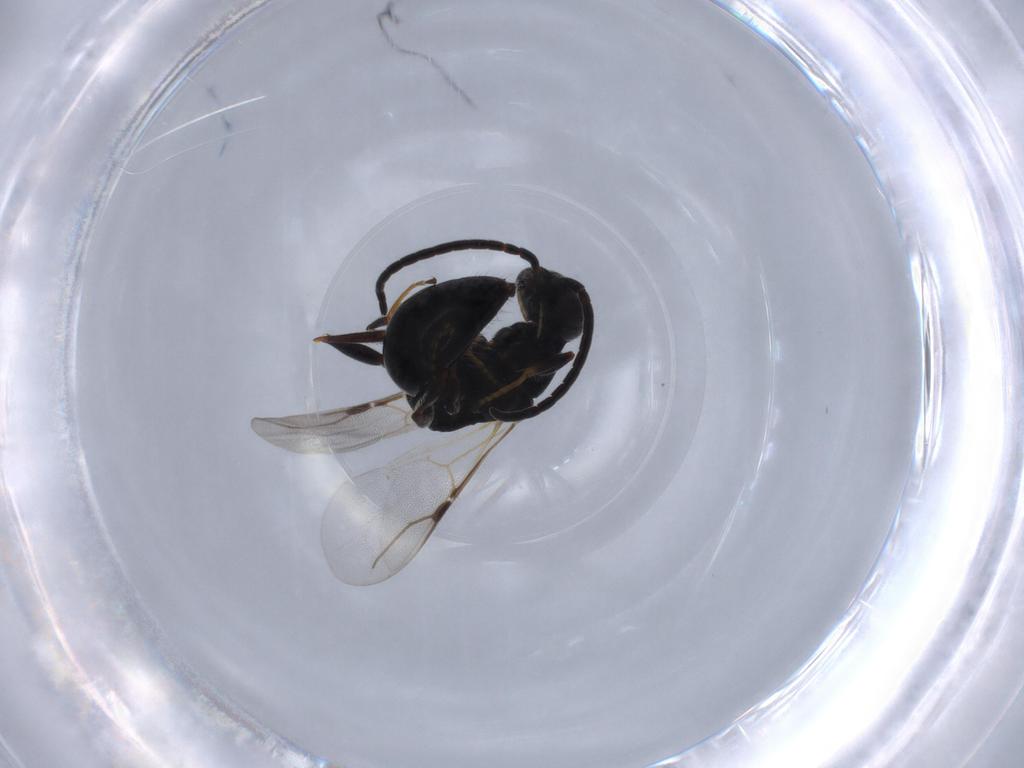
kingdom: Animalia
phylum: Arthropoda
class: Insecta
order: Hymenoptera
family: Bethylidae
